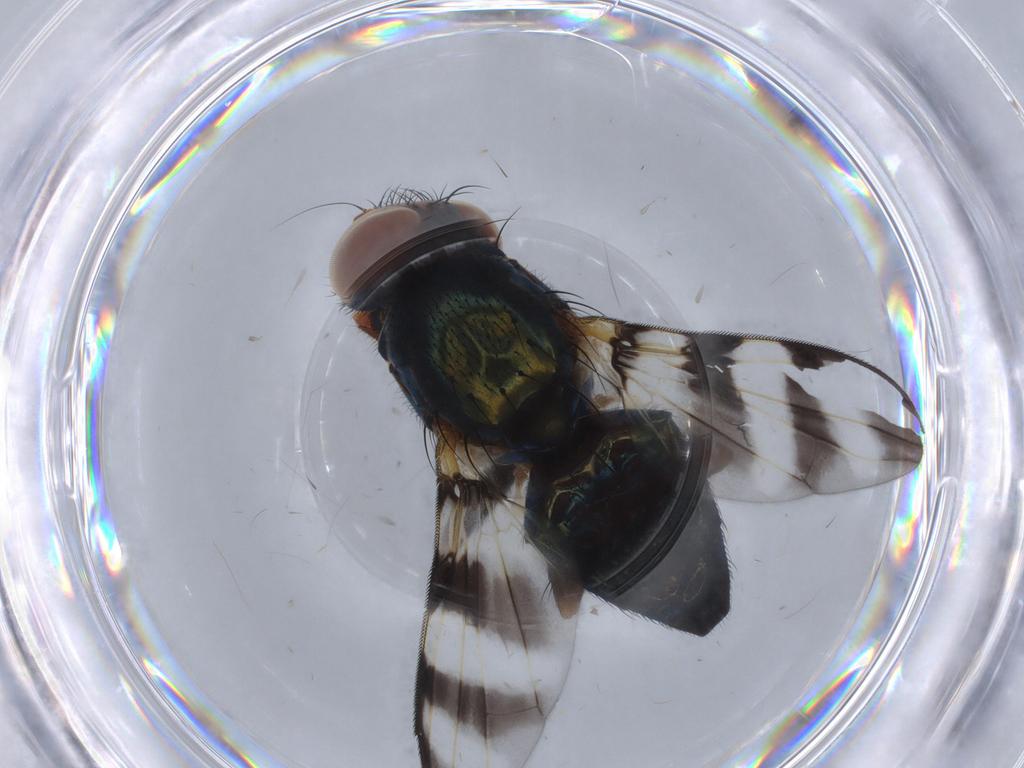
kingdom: Animalia
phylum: Arthropoda
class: Insecta
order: Diptera
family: Ulidiidae
